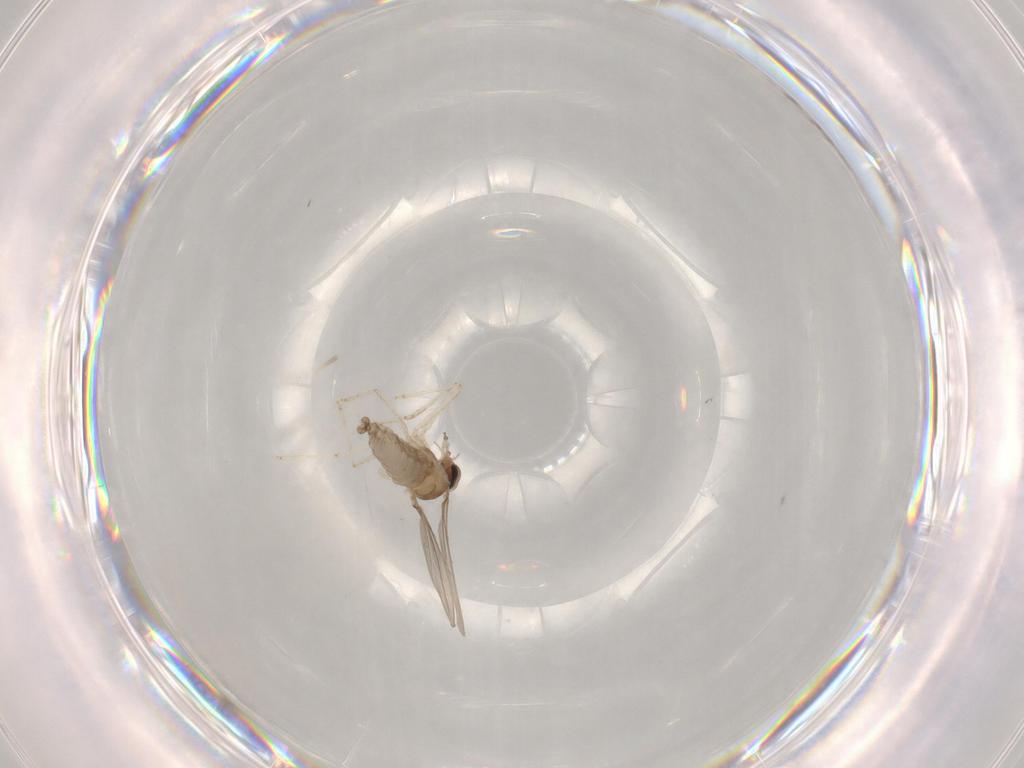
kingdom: Animalia
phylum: Arthropoda
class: Insecta
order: Diptera
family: Cecidomyiidae
